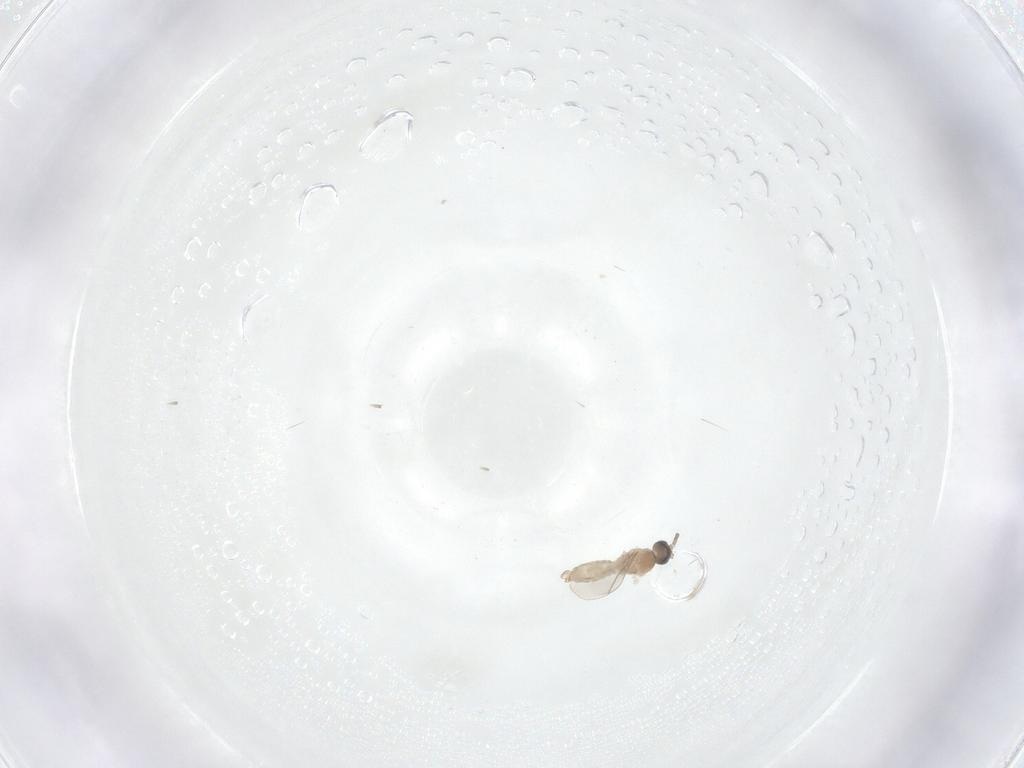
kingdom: Animalia
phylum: Arthropoda
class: Insecta
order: Diptera
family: Cecidomyiidae
